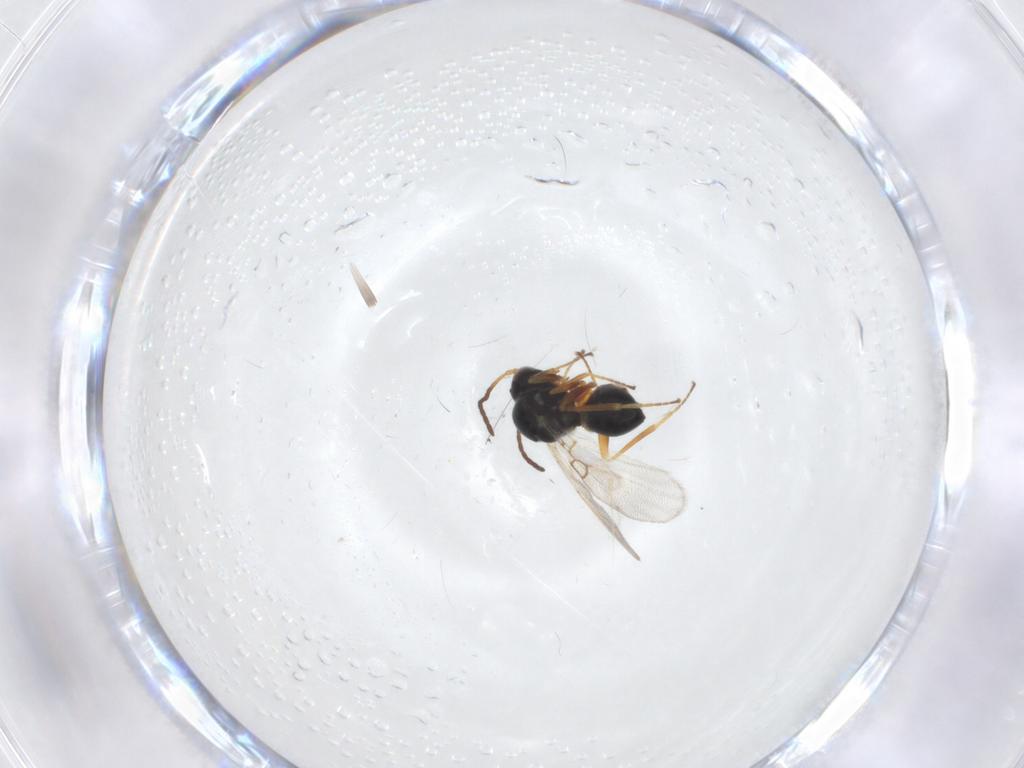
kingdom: Animalia
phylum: Arthropoda
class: Insecta
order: Hymenoptera
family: Figitidae
